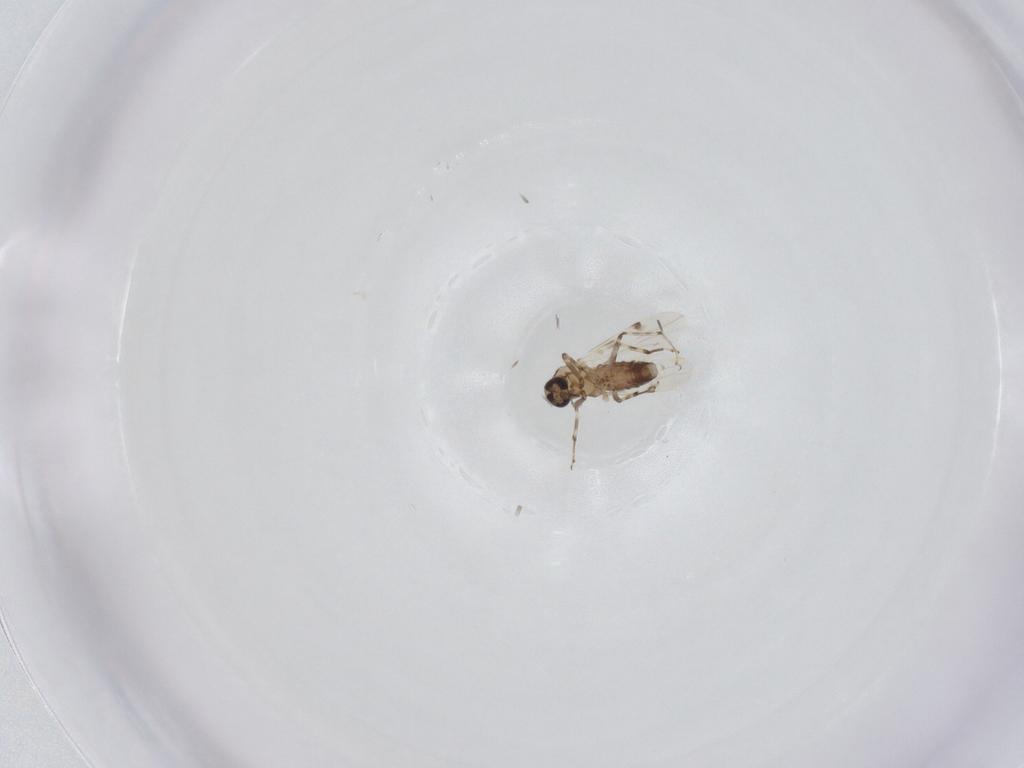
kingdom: Animalia
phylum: Arthropoda
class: Insecta
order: Diptera
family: Ceratopogonidae
